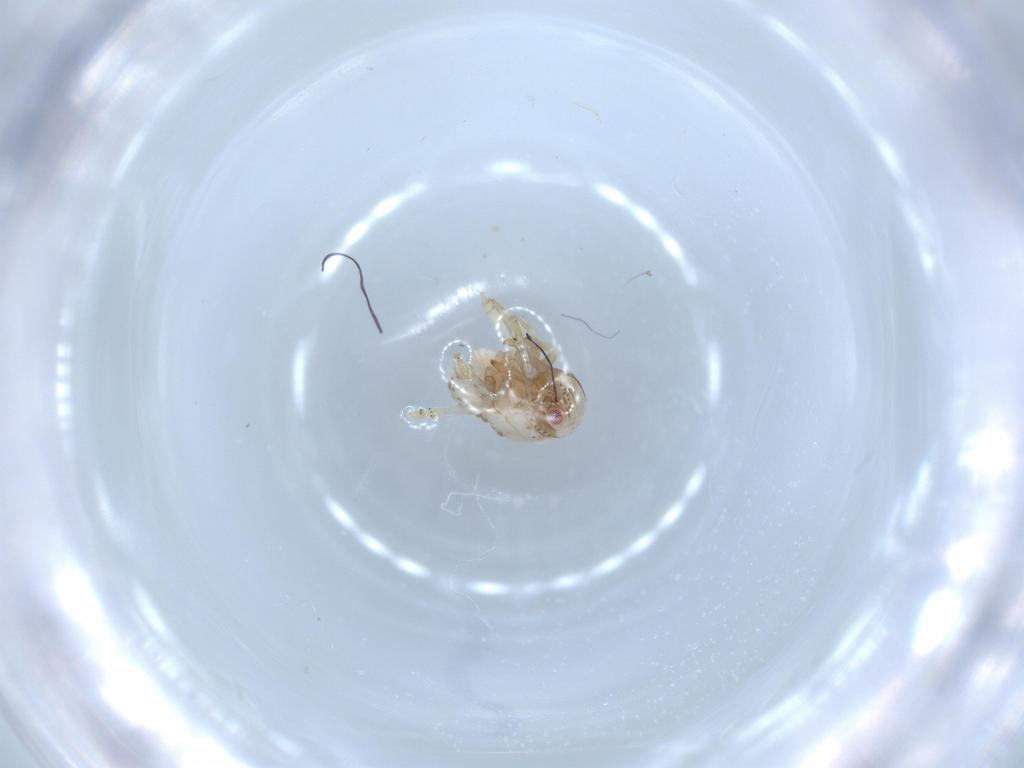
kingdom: Animalia
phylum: Arthropoda
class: Insecta
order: Hemiptera
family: Acanaloniidae
